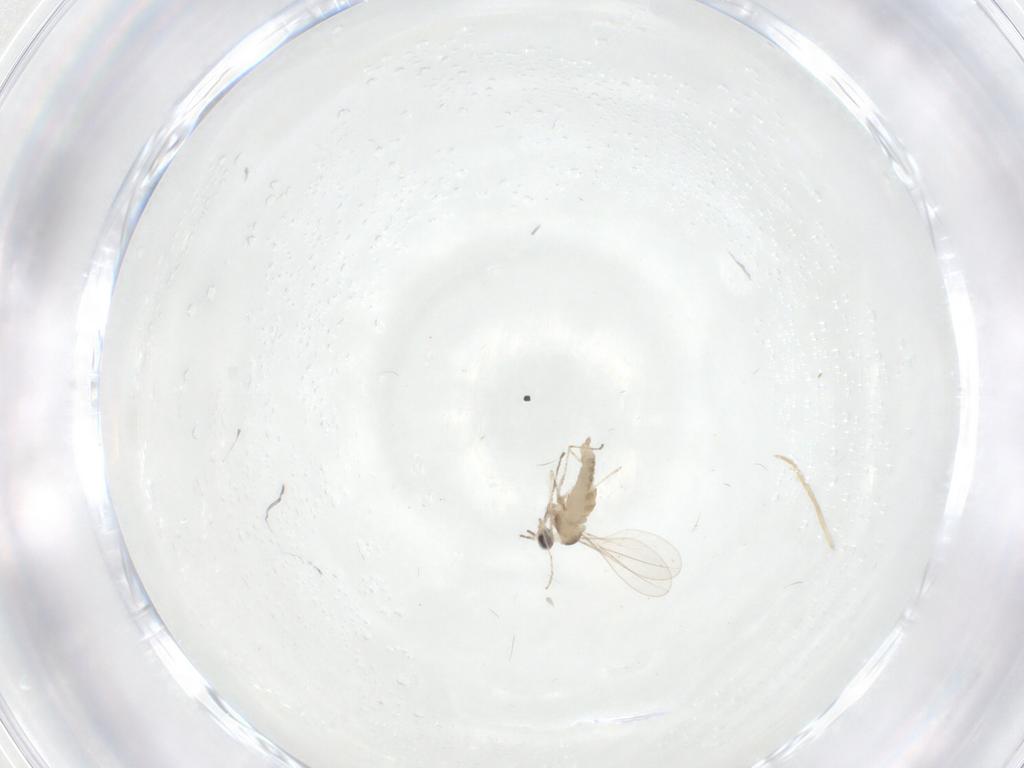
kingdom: Animalia
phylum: Arthropoda
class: Insecta
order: Diptera
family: Cecidomyiidae
